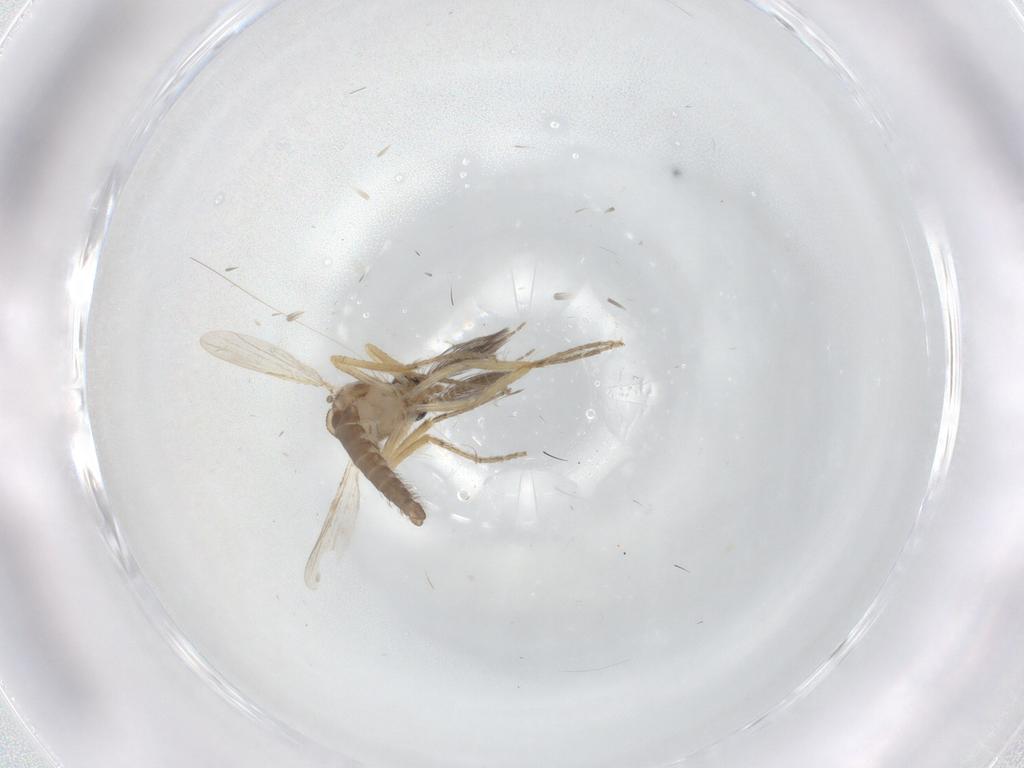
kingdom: Animalia
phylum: Arthropoda
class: Insecta
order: Diptera
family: Ceratopogonidae
